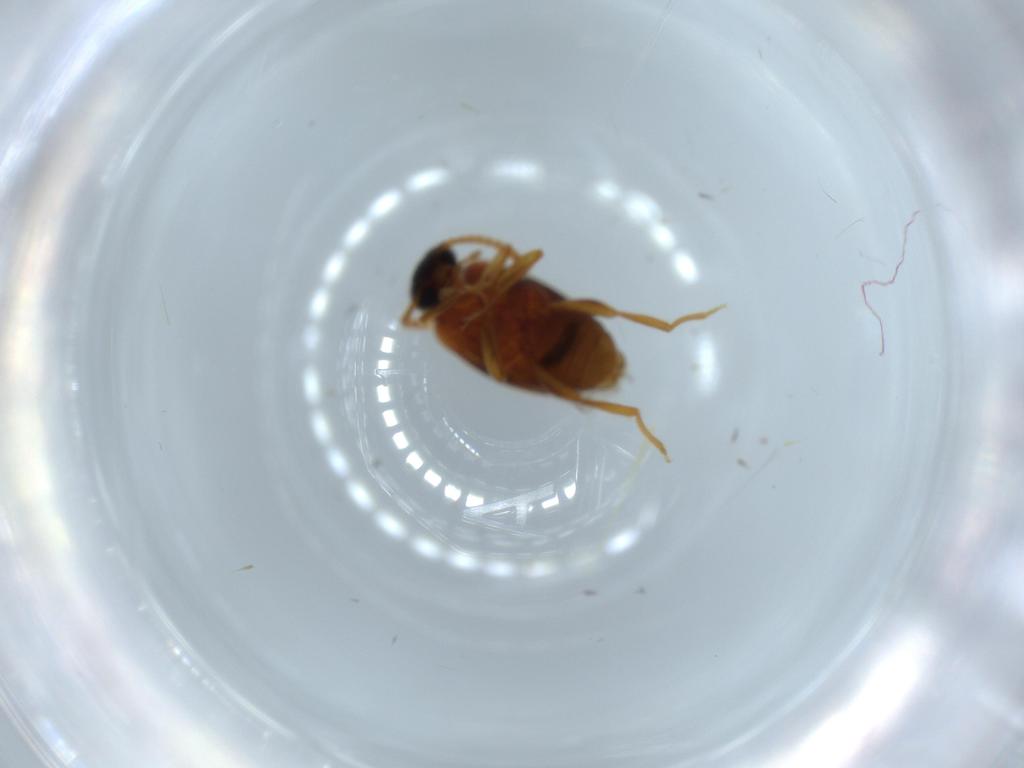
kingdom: Animalia
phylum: Arthropoda
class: Insecta
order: Coleoptera
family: Aderidae
